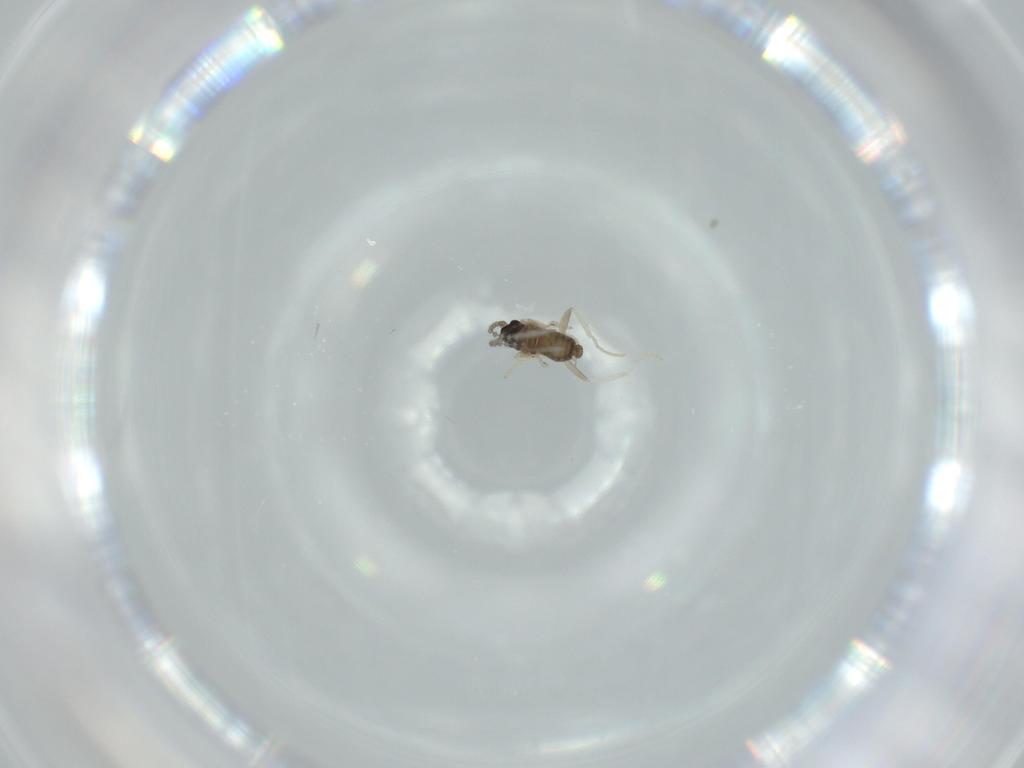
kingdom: Animalia
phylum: Arthropoda
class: Insecta
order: Diptera
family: Cecidomyiidae
